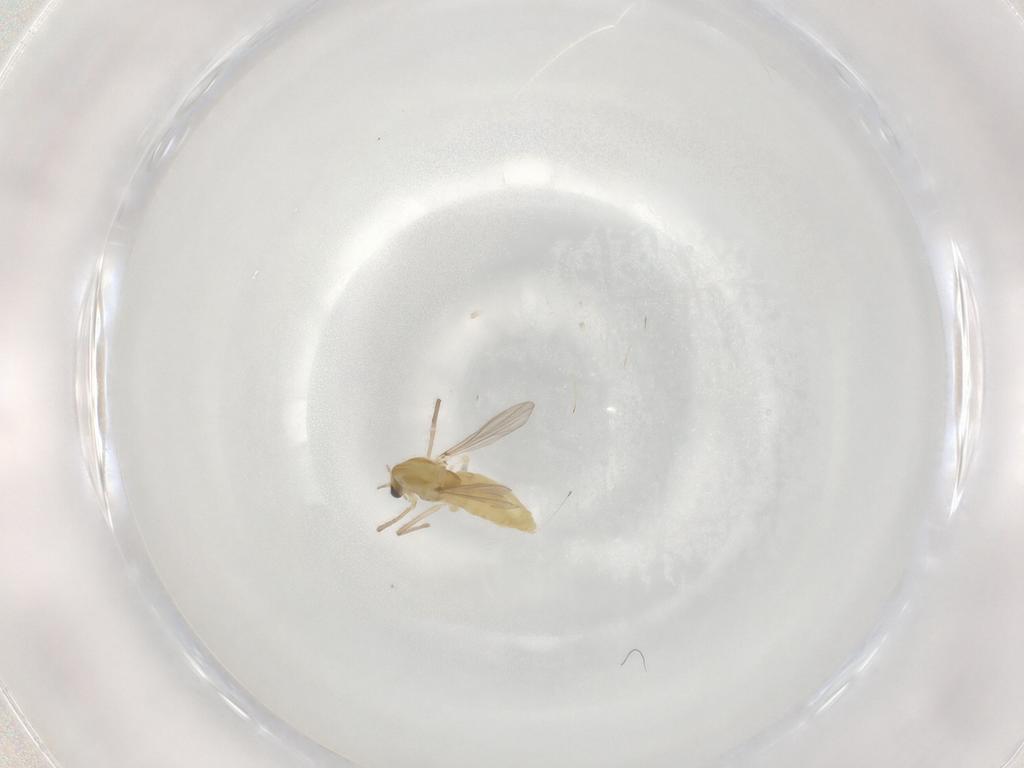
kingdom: Animalia
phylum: Arthropoda
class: Insecta
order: Diptera
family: Chironomidae
